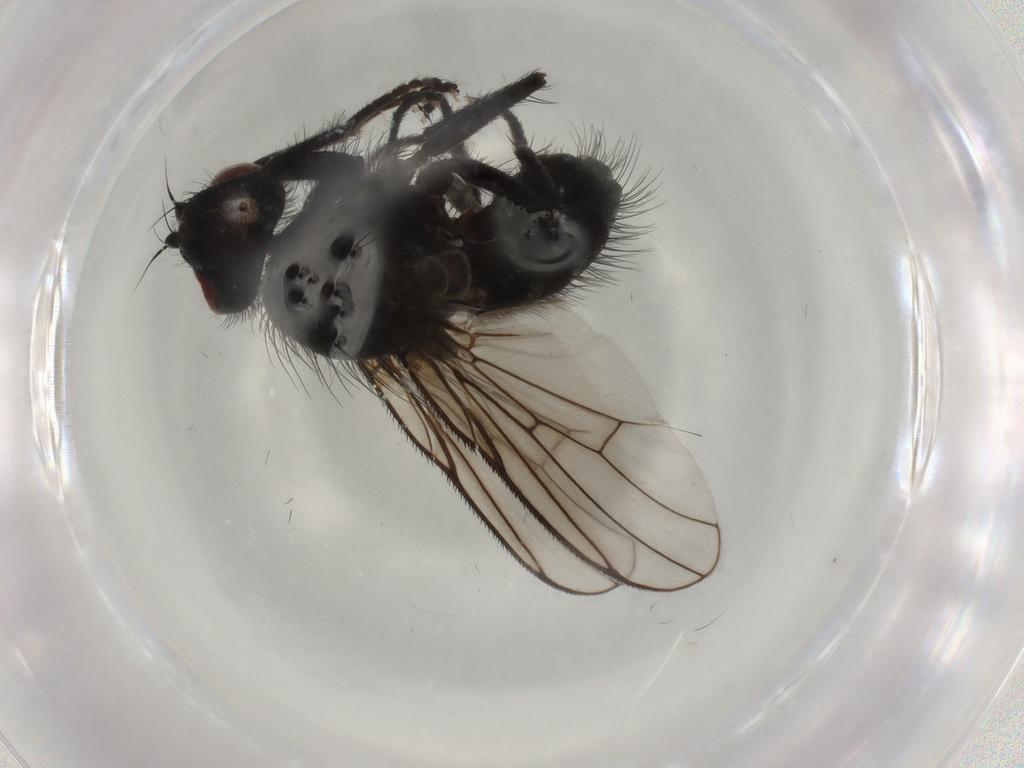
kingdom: Animalia
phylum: Arthropoda
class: Insecta
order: Diptera
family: Muscidae
